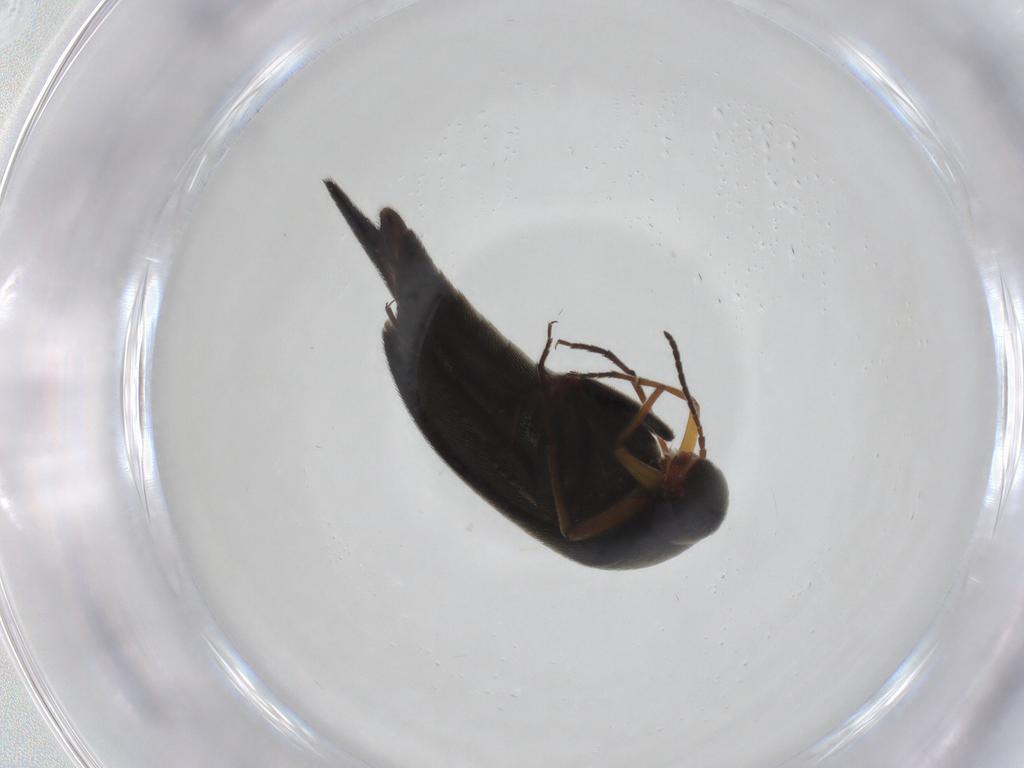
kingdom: Animalia
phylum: Arthropoda
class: Insecta
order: Coleoptera
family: Mordellidae
